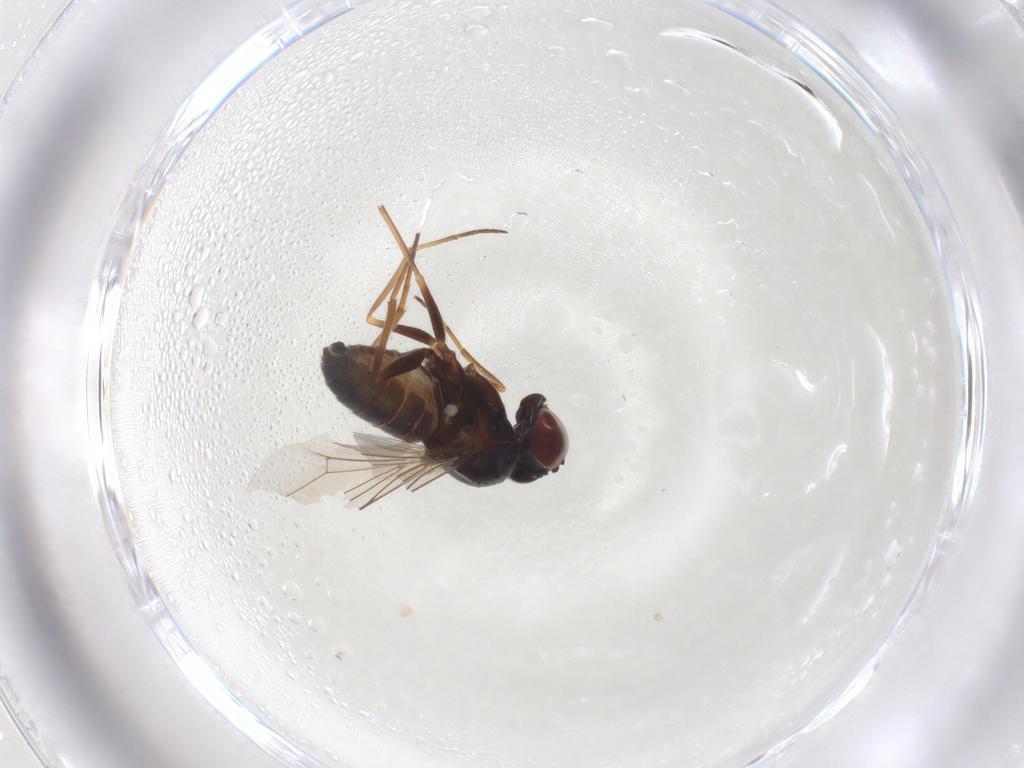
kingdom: Animalia
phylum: Arthropoda
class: Insecta
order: Diptera
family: Dolichopodidae
